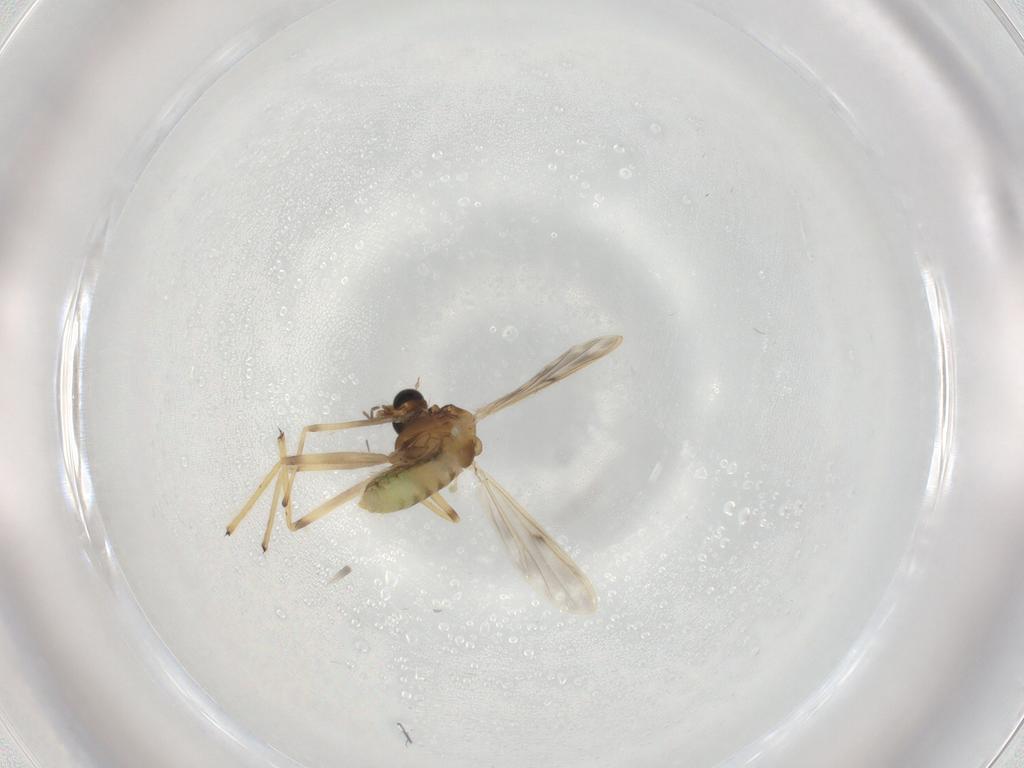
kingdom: Animalia
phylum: Arthropoda
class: Insecta
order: Diptera
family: Chironomidae
